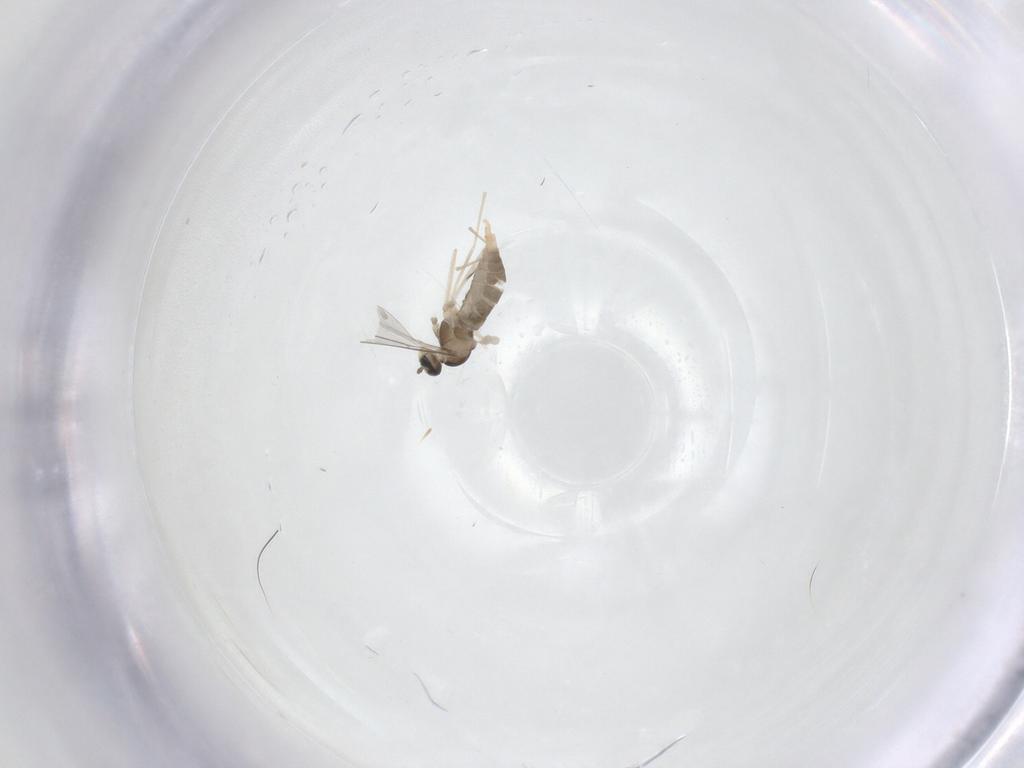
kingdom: Animalia
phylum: Arthropoda
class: Insecta
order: Diptera
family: Cecidomyiidae
